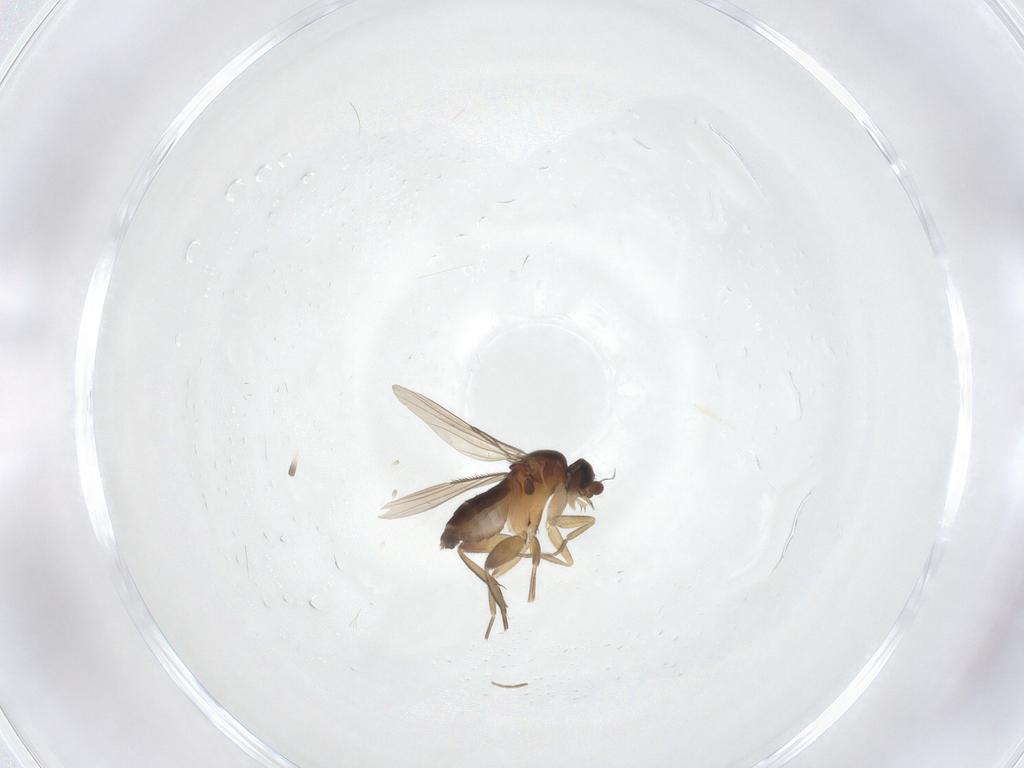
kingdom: Animalia
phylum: Arthropoda
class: Insecta
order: Diptera
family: Phoridae
